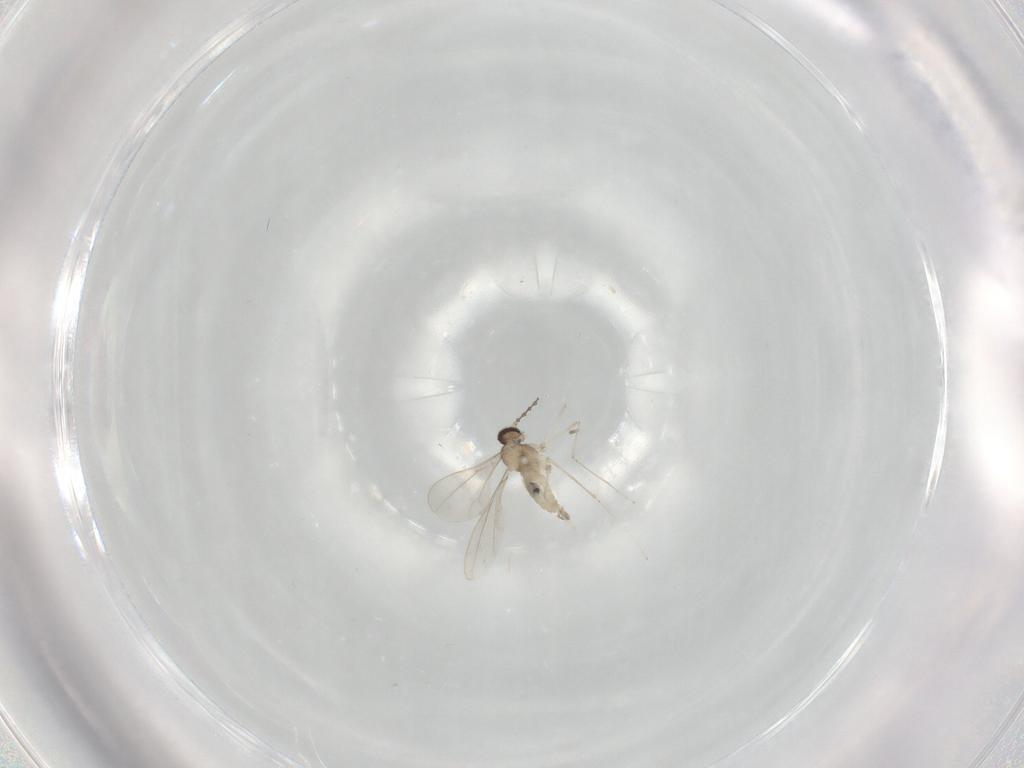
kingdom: Animalia
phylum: Arthropoda
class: Insecta
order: Diptera
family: Cecidomyiidae
